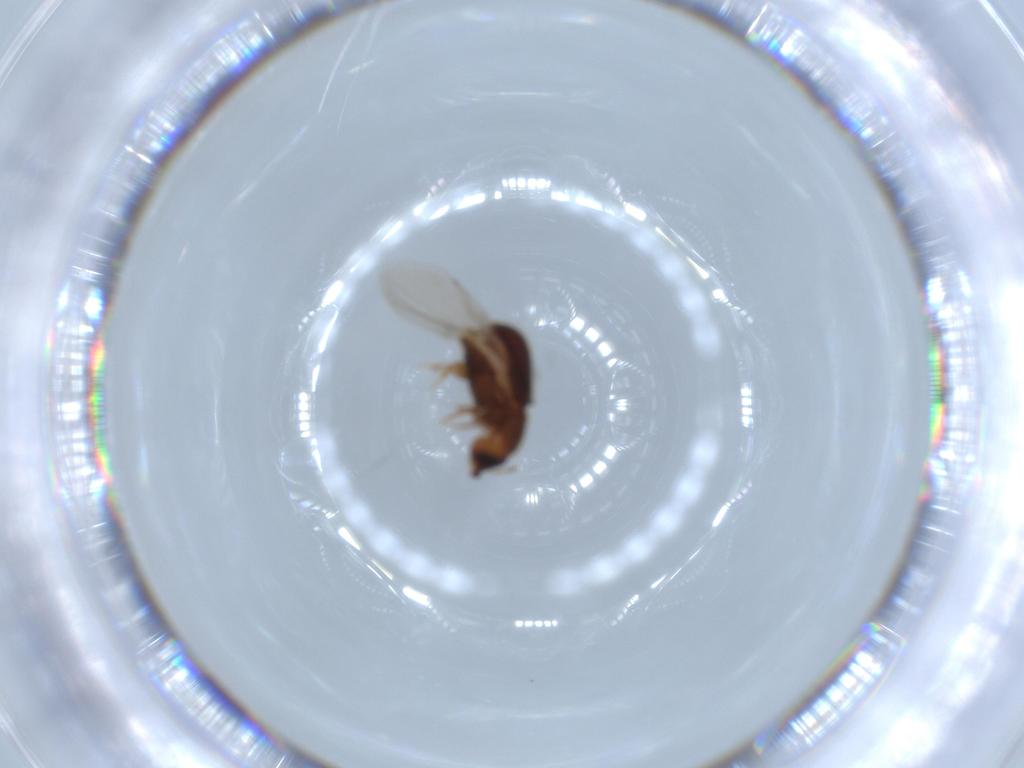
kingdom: Animalia
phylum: Arthropoda
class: Insecta
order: Coleoptera
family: Curculionidae
